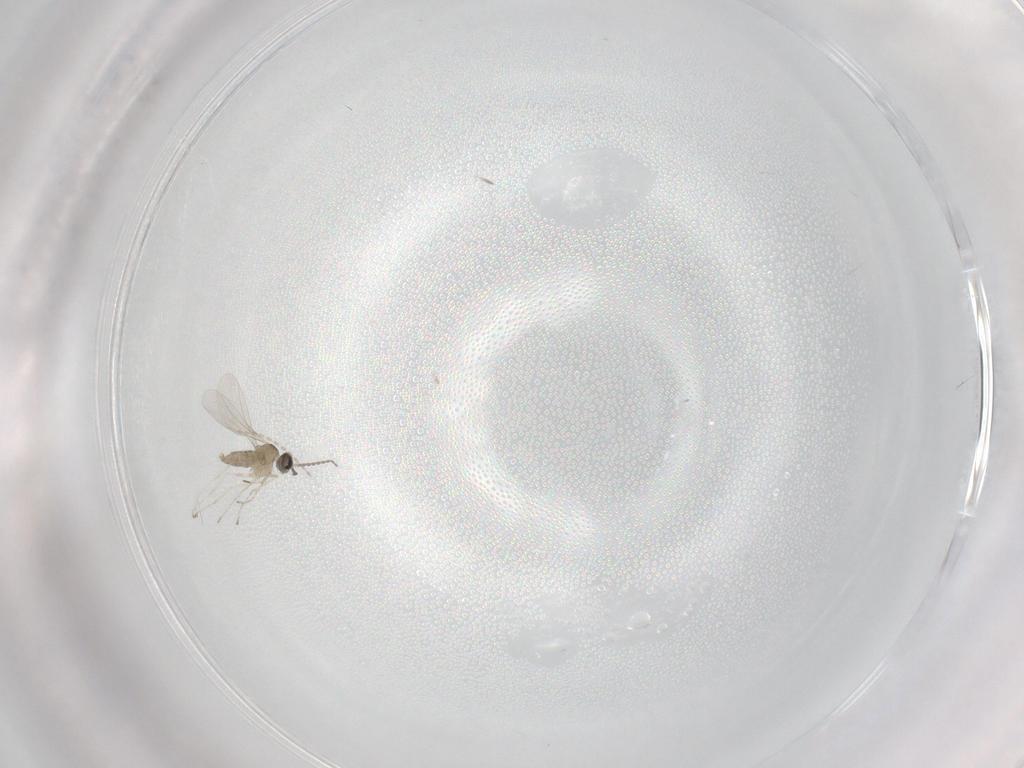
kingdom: Animalia
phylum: Arthropoda
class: Insecta
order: Diptera
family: Cecidomyiidae
